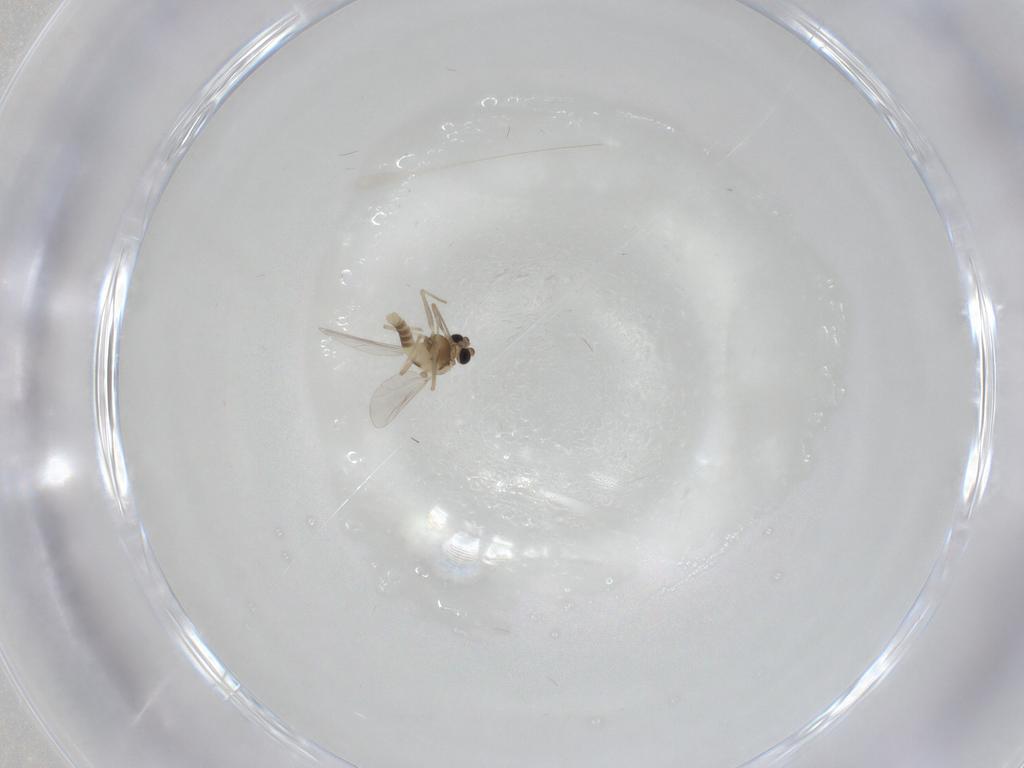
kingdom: Animalia
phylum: Arthropoda
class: Insecta
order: Diptera
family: Chironomidae
